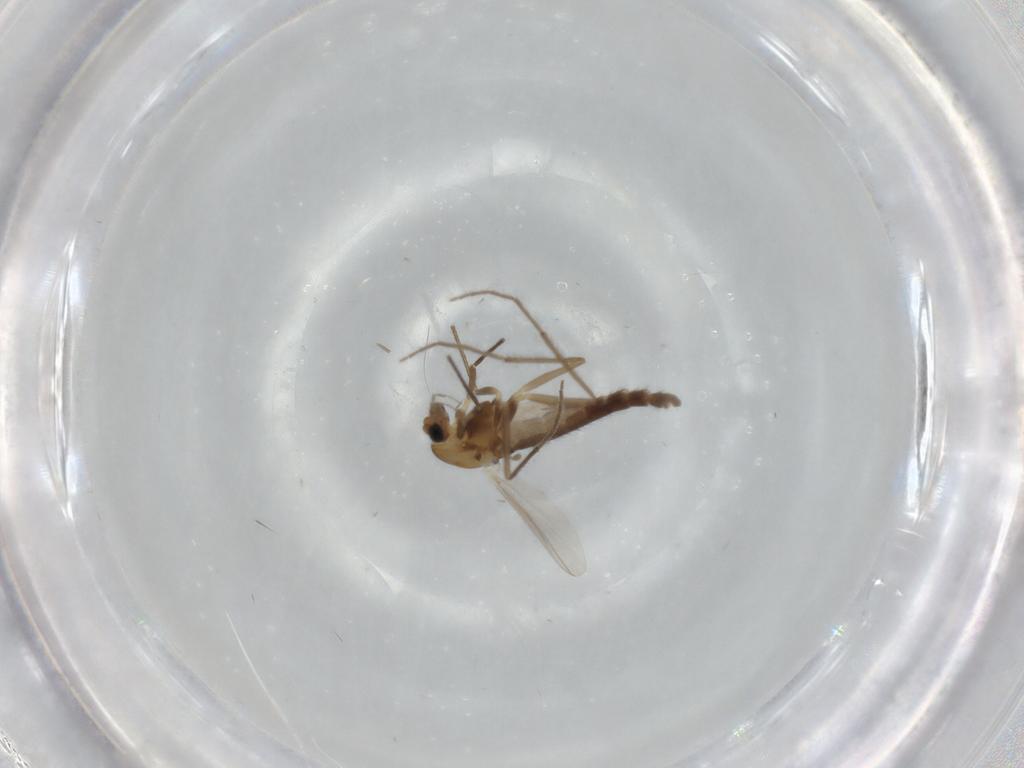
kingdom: Animalia
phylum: Arthropoda
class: Insecta
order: Diptera
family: Chironomidae
